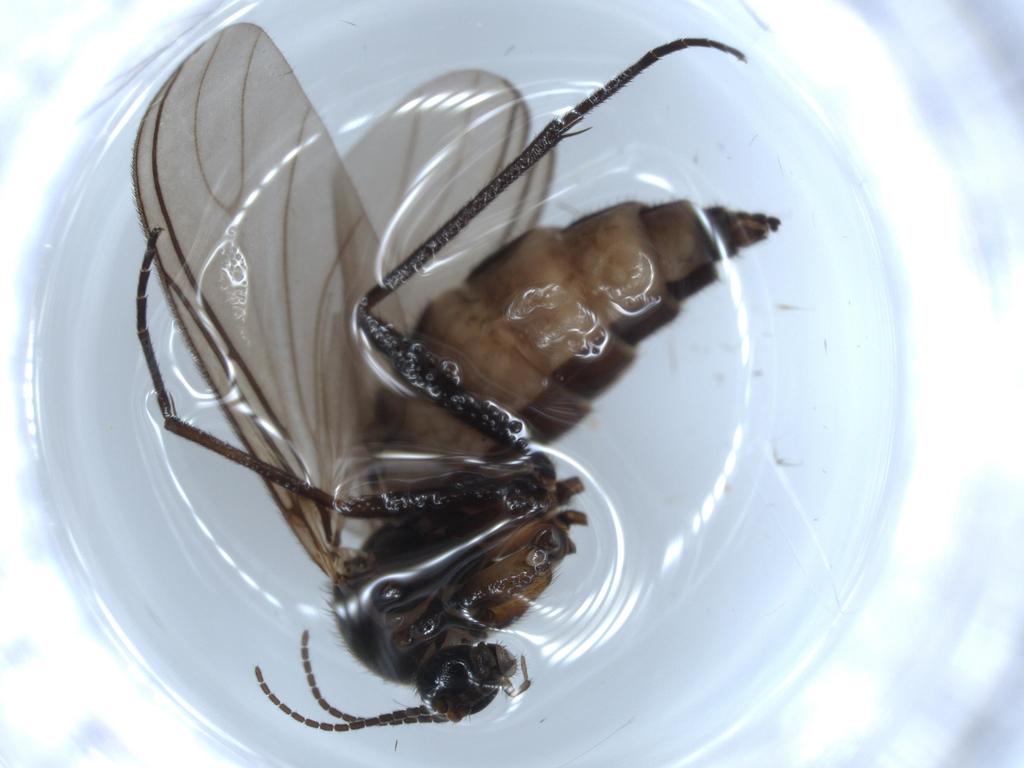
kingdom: Animalia
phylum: Arthropoda
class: Insecta
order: Diptera
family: Sciaridae
